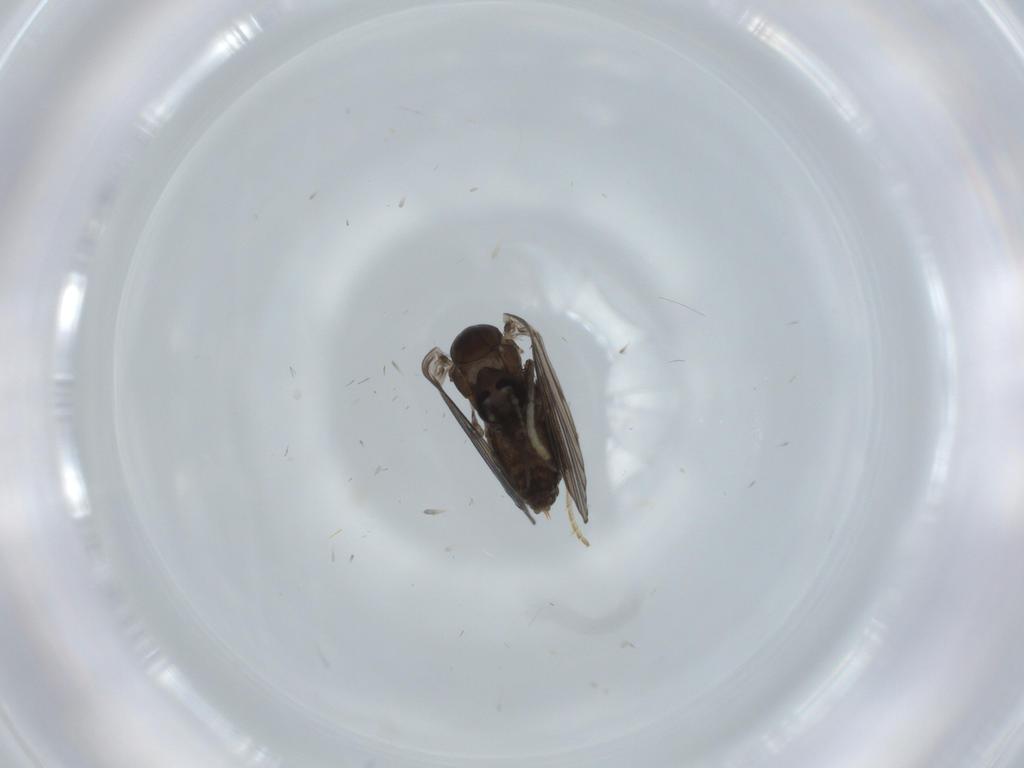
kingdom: Animalia
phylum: Arthropoda
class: Insecta
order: Diptera
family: Psychodidae
